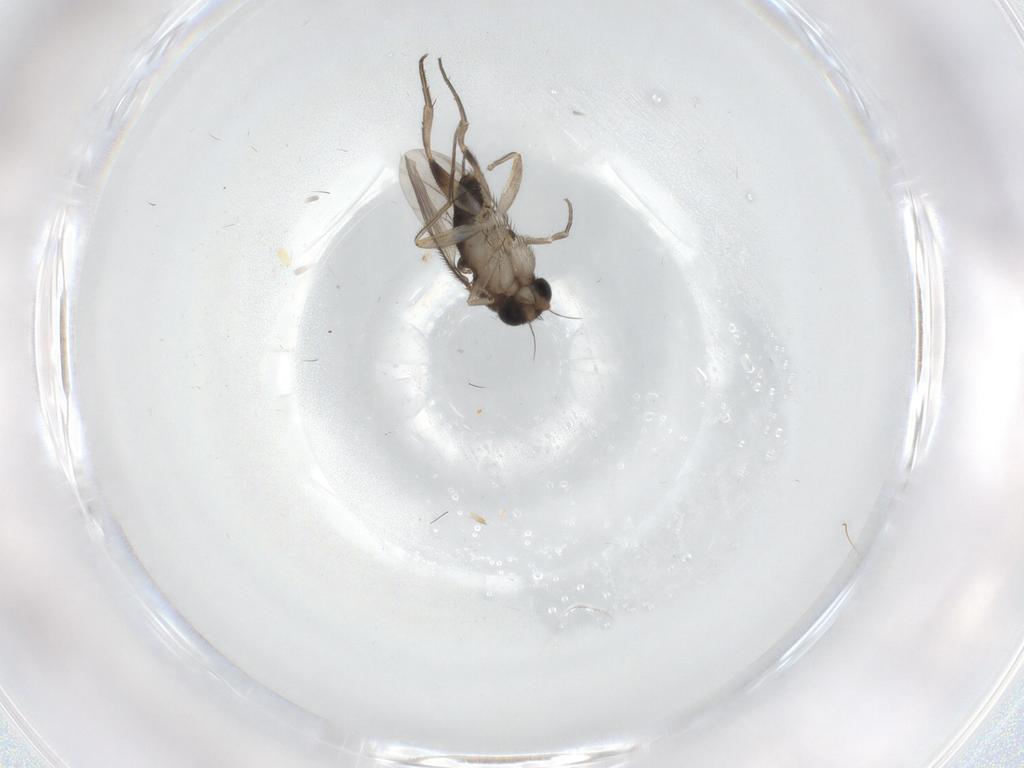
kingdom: Animalia
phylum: Arthropoda
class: Insecta
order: Diptera
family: Phoridae
